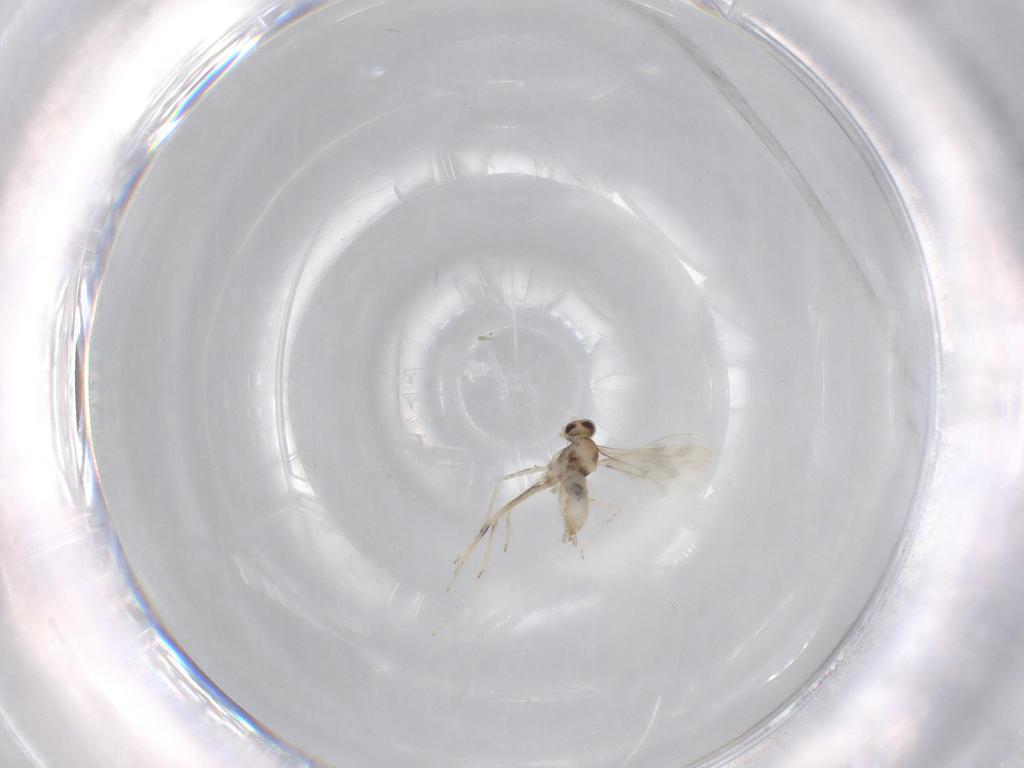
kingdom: Animalia
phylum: Arthropoda
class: Insecta
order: Diptera
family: Cecidomyiidae
